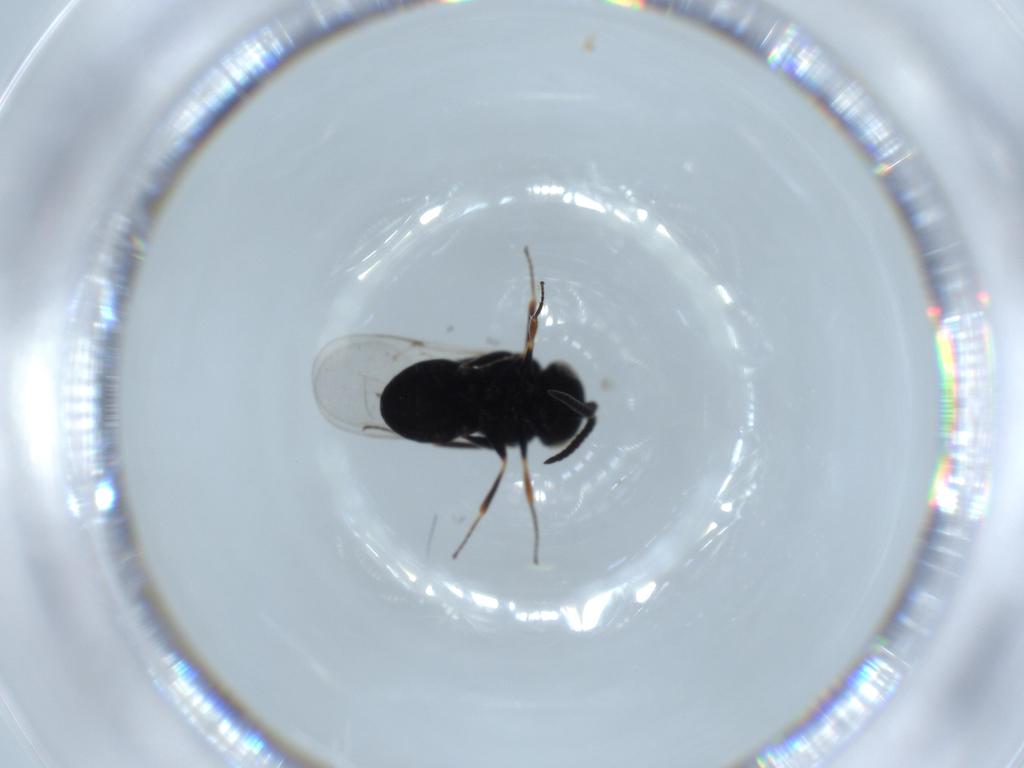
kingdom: Animalia
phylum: Arthropoda
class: Insecta
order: Hymenoptera
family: Scelionidae
